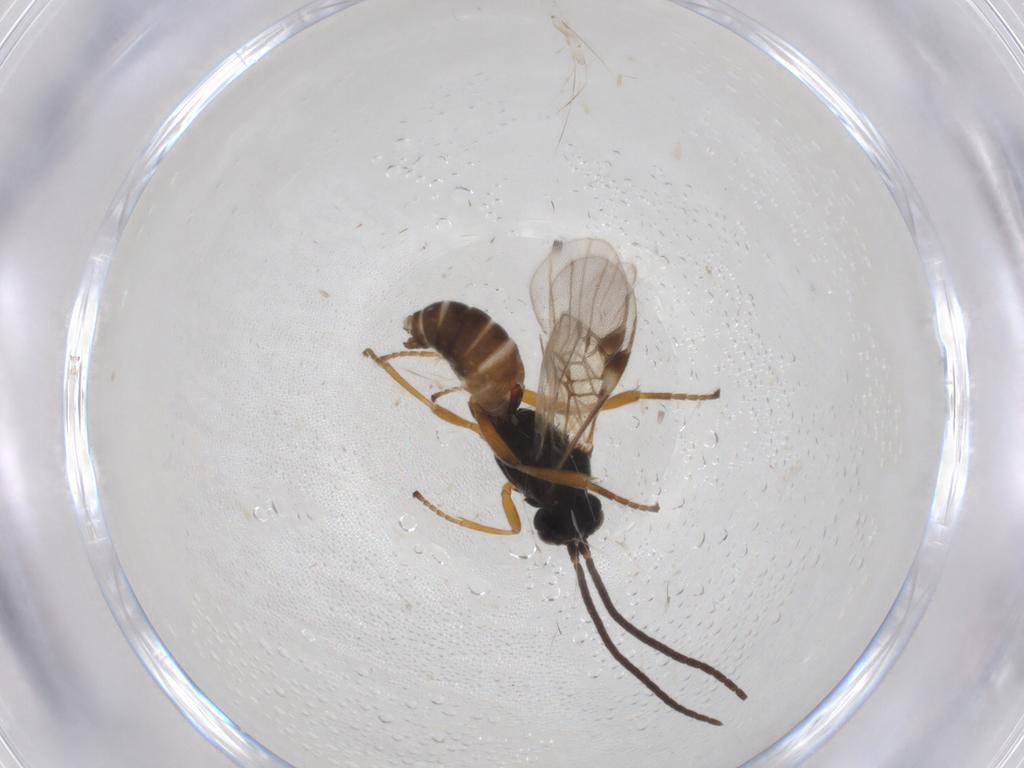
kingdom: Animalia
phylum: Arthropoda
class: Insecta
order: Hymenoptera
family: Braconidae
